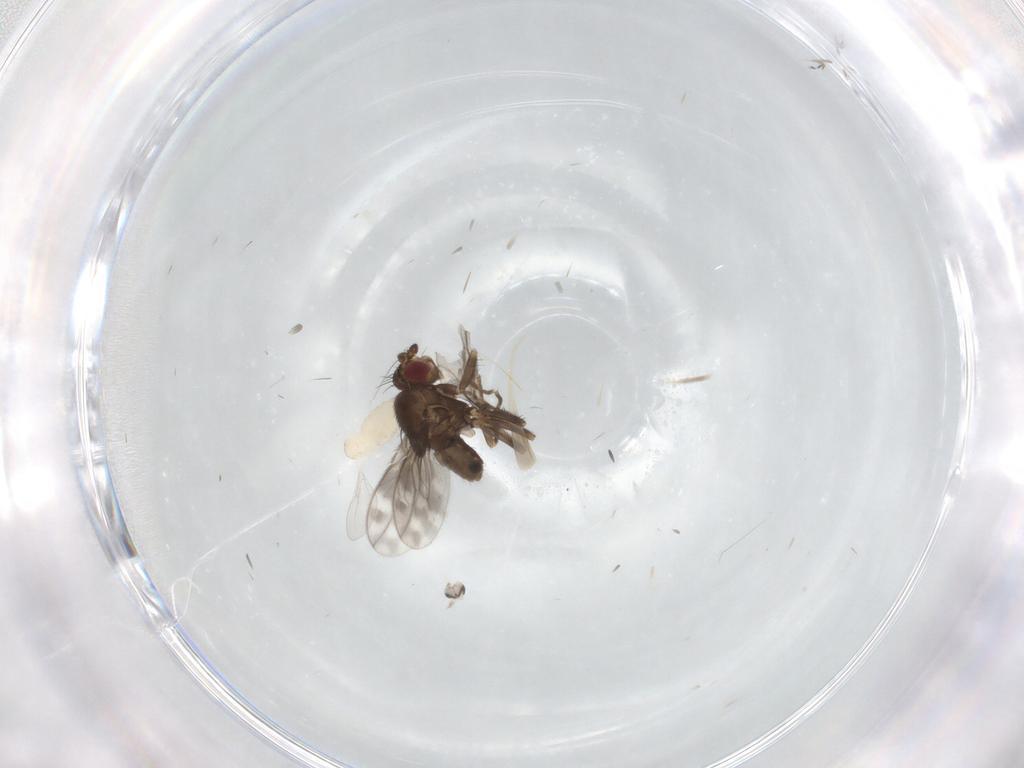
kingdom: Animalia
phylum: Arthropoda
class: Insecta
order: Diptera
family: Cecidomyiidae
